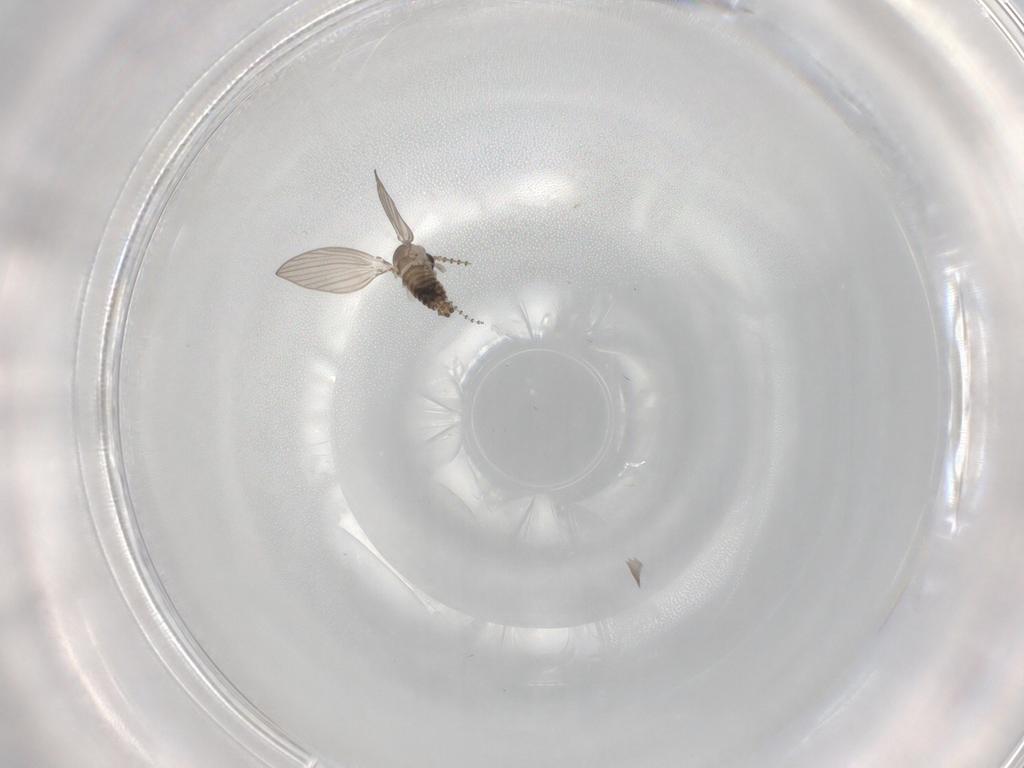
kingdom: Animalia
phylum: Arthropoda
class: Insecta
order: Diptera
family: Psychodidae
